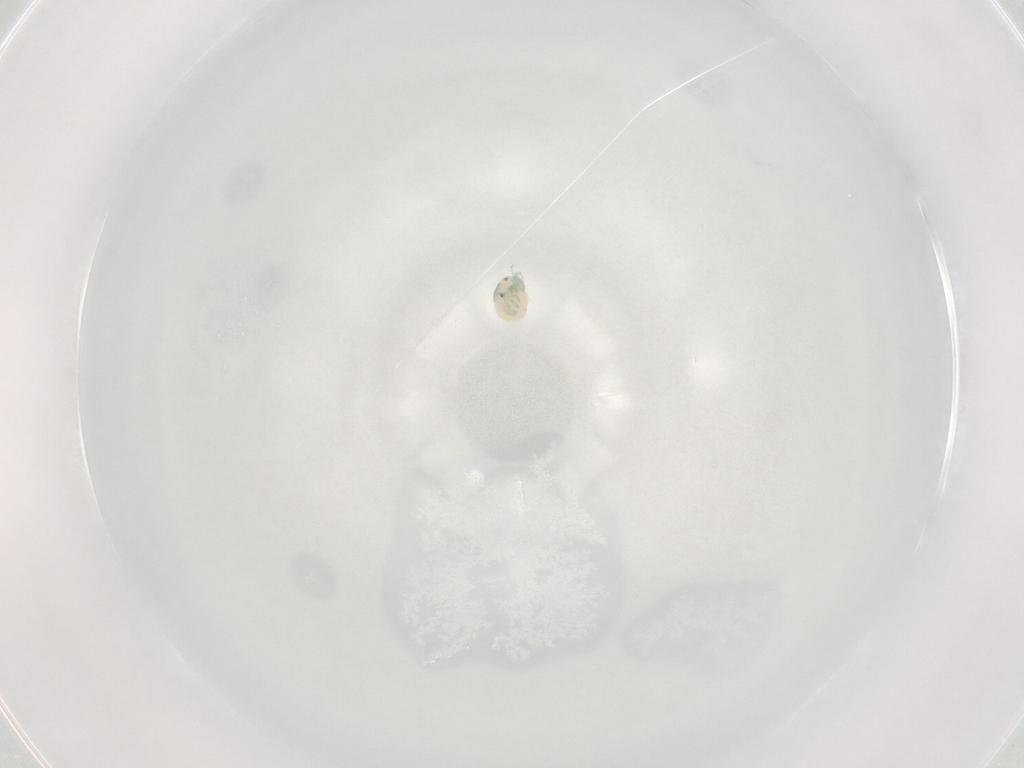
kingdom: Animalia
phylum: Arthropoda
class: Arachnida
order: Trombidiformes
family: Arrenuridae
